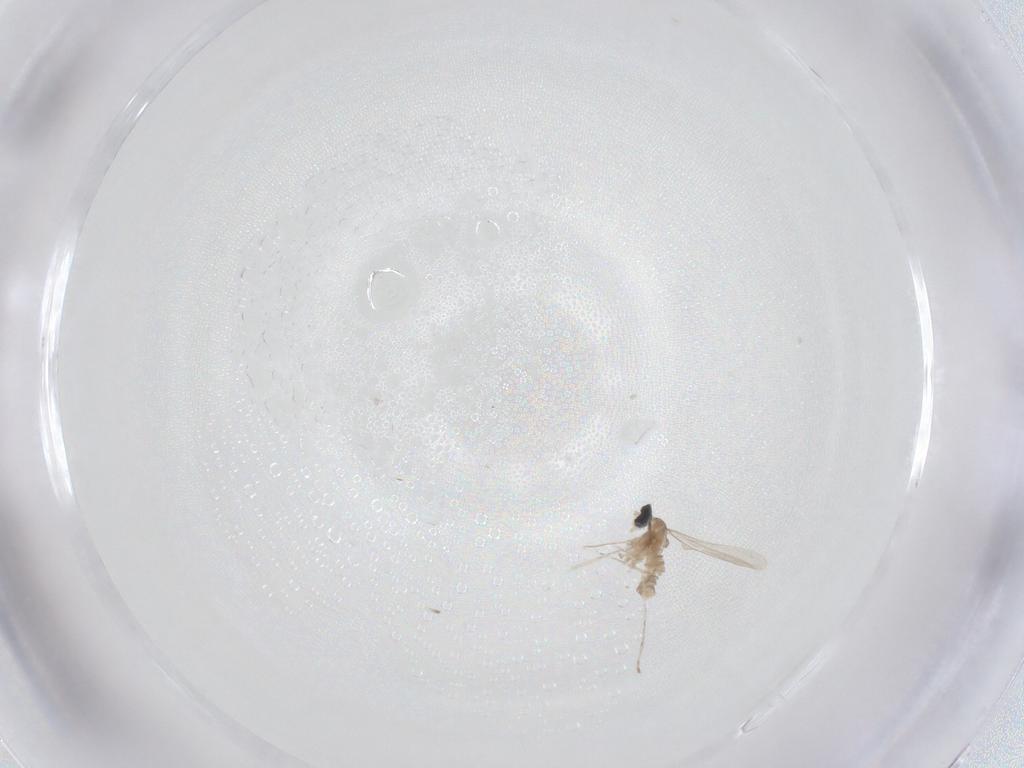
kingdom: Animalia
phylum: Arthropoda
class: Insecta
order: Diptera
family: Cecidomyiidae
